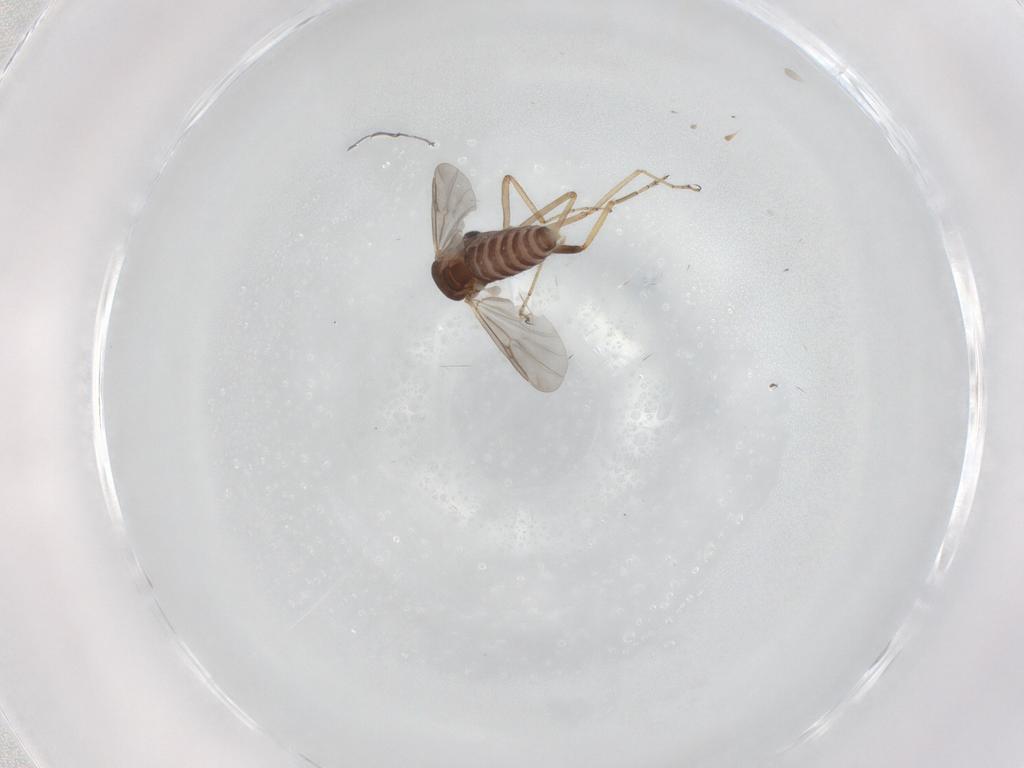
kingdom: Animalia
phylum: Arthropoda
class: Insecta
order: Diptera
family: Ceratopogonidae
